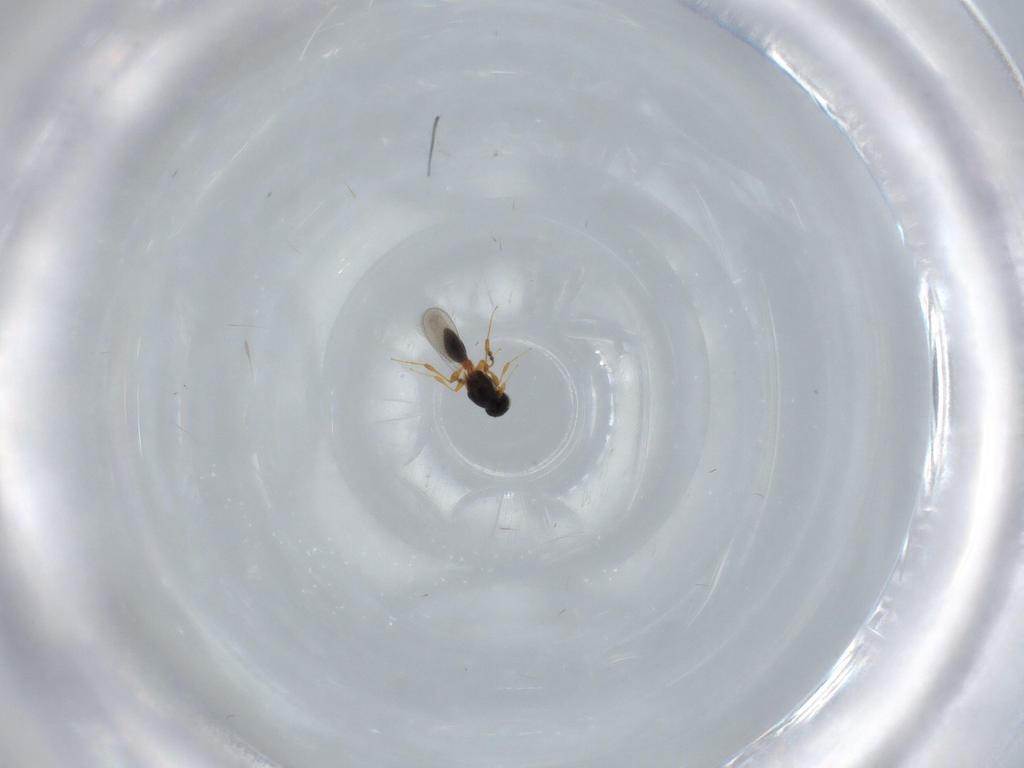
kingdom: Animalia
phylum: Arthropoda
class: Insecta
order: Hymenoptera
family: Platygastridae
